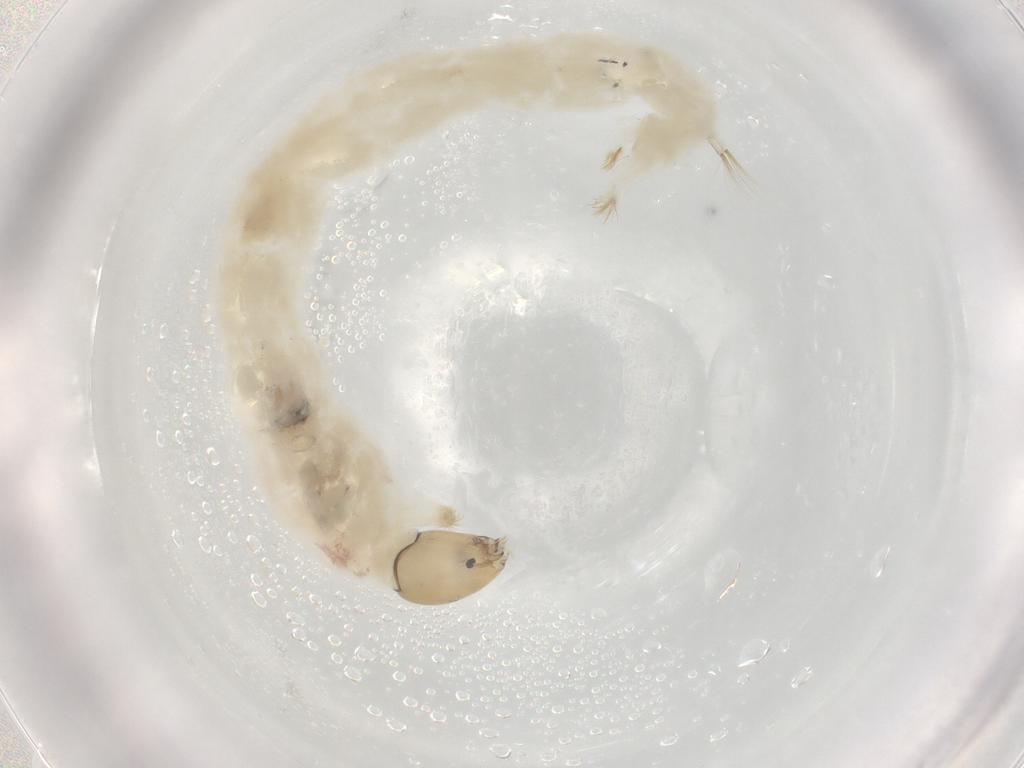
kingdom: Animalia
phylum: Arthropoda
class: Insecta
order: Diptera
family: Chironomidae
